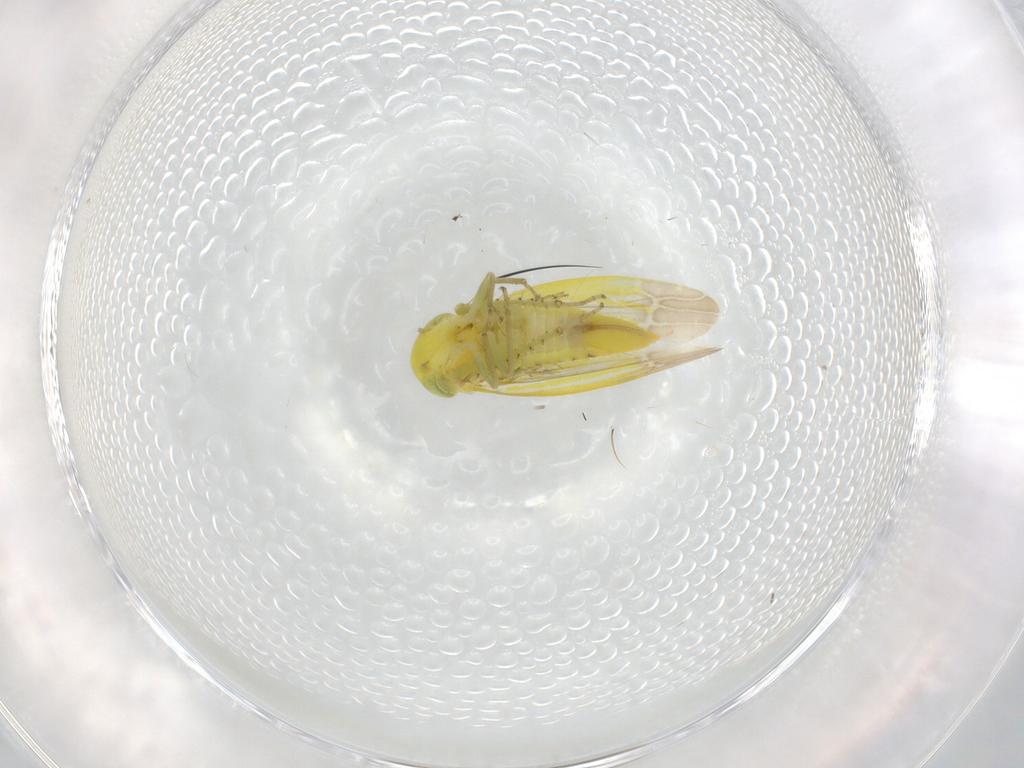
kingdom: Animalia
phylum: Arthropoda
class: Insecta
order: Hemiptera
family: Cicadellidae
